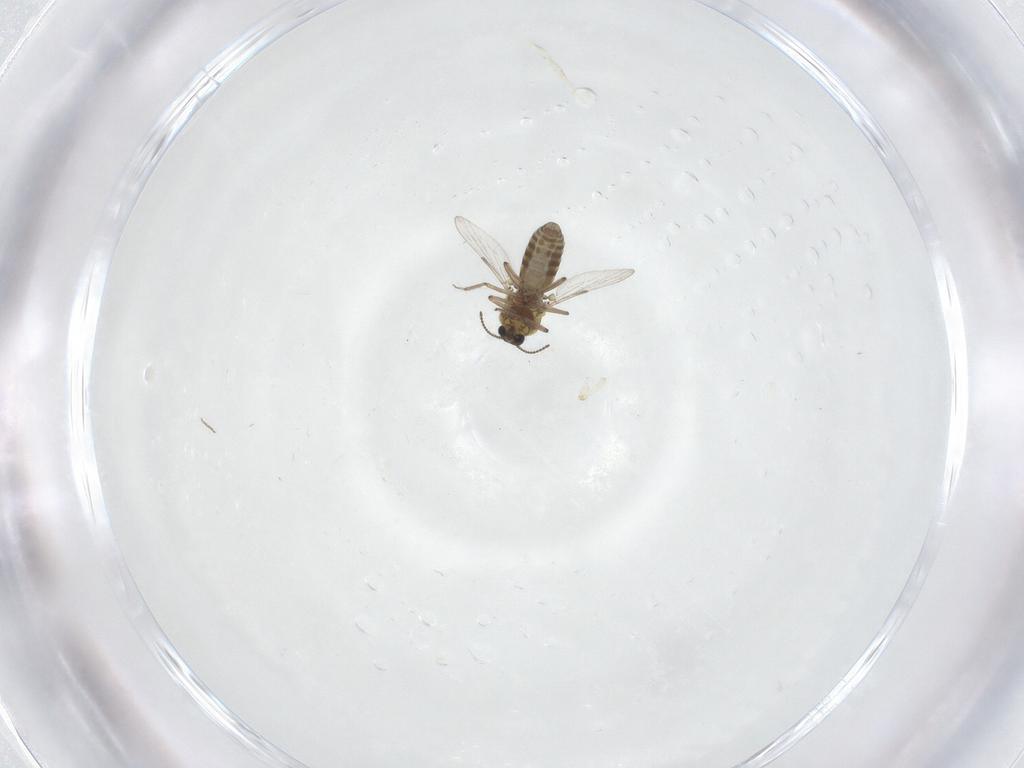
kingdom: Animalia
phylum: Arthropoda
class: Insecta
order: Diptera
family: Ceratopogonidae
